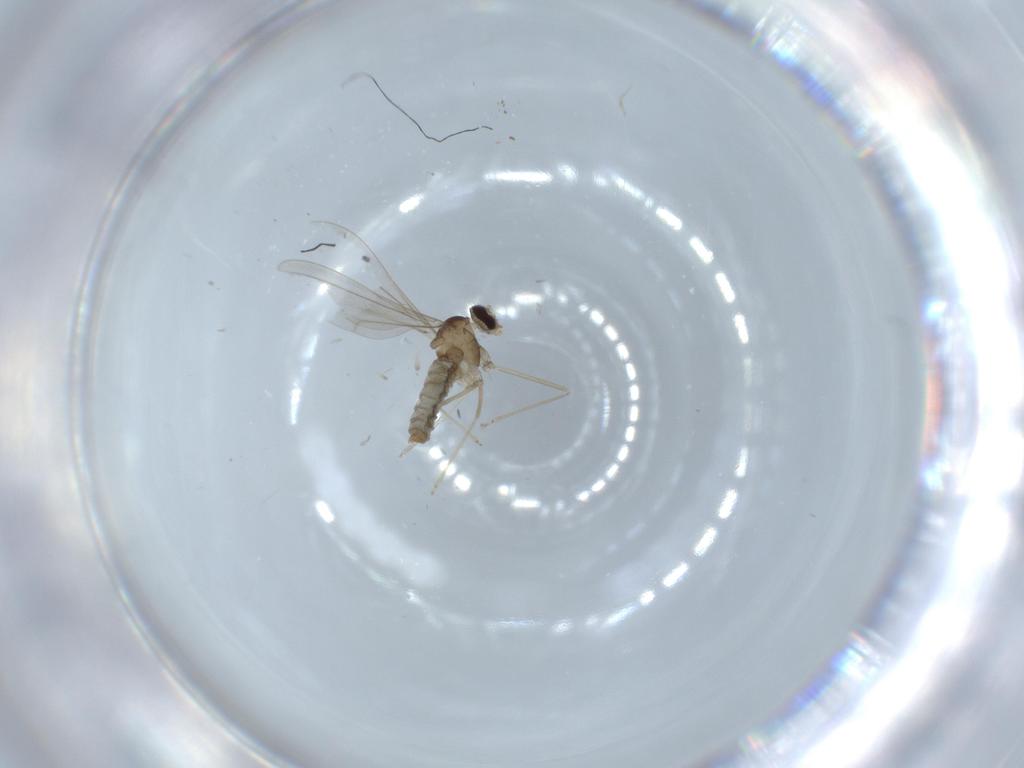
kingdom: Animalia
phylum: Arthropoda
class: Insecta
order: Diptera
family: Cecidomyiidae
